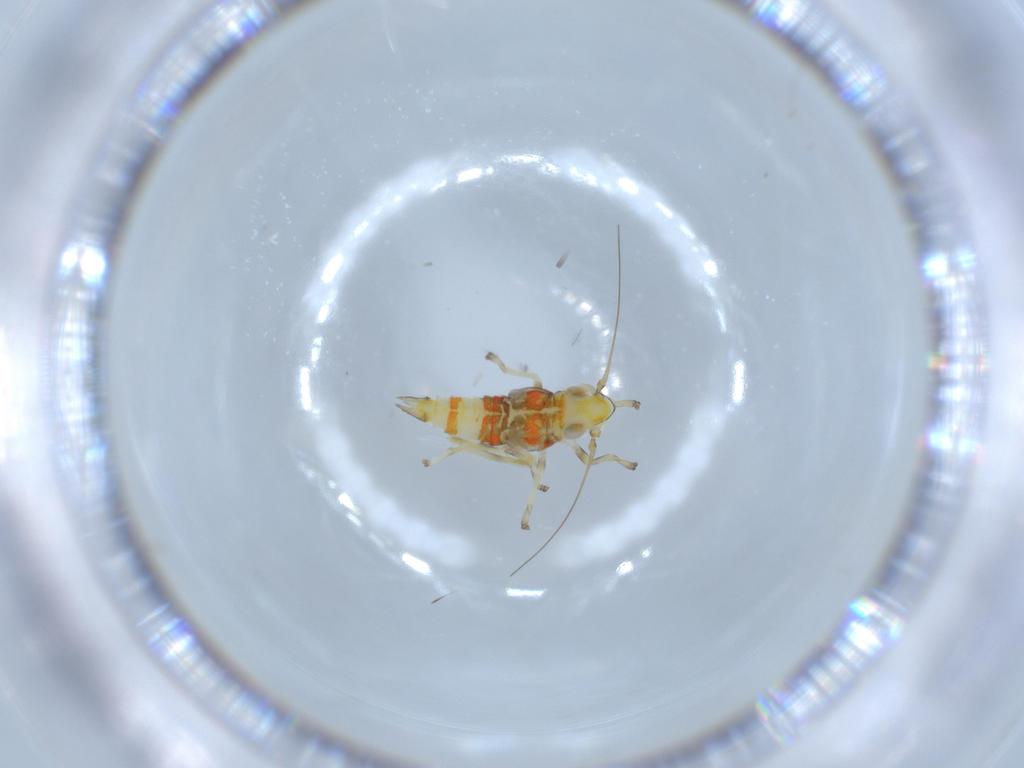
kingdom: Animalia
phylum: Arthropoda
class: Insecta
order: Hemiptera
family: Cicadellidae
